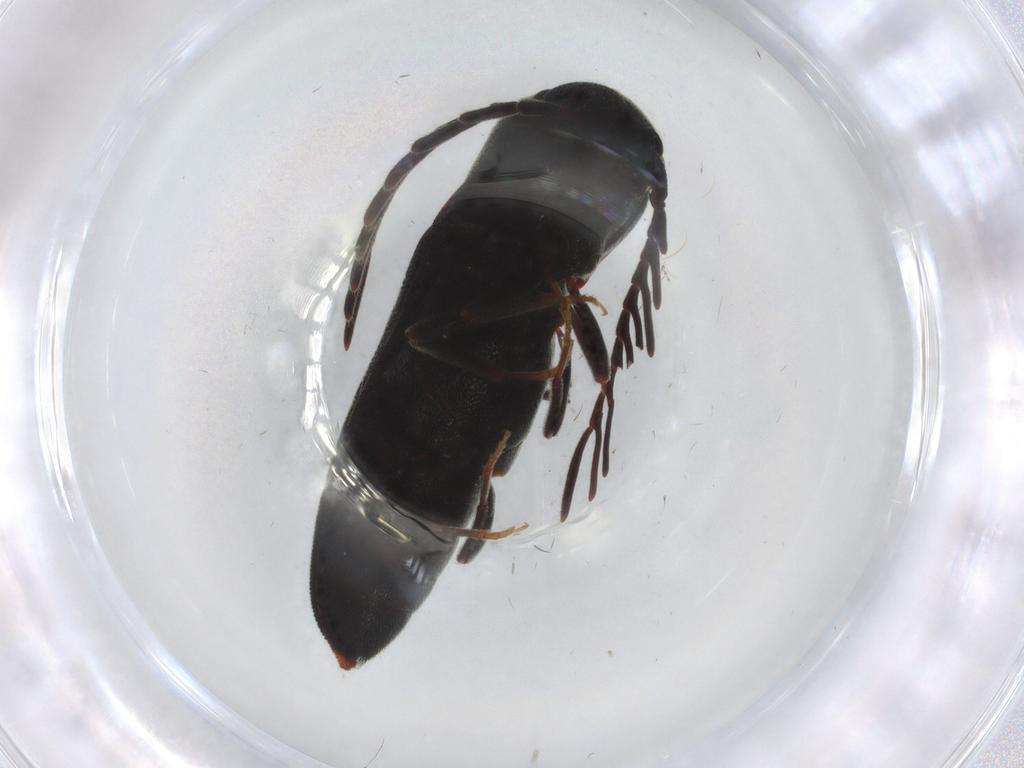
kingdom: Animalia
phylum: Arthropoda
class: Insecta
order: Coleoptera
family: Eucnemidae
